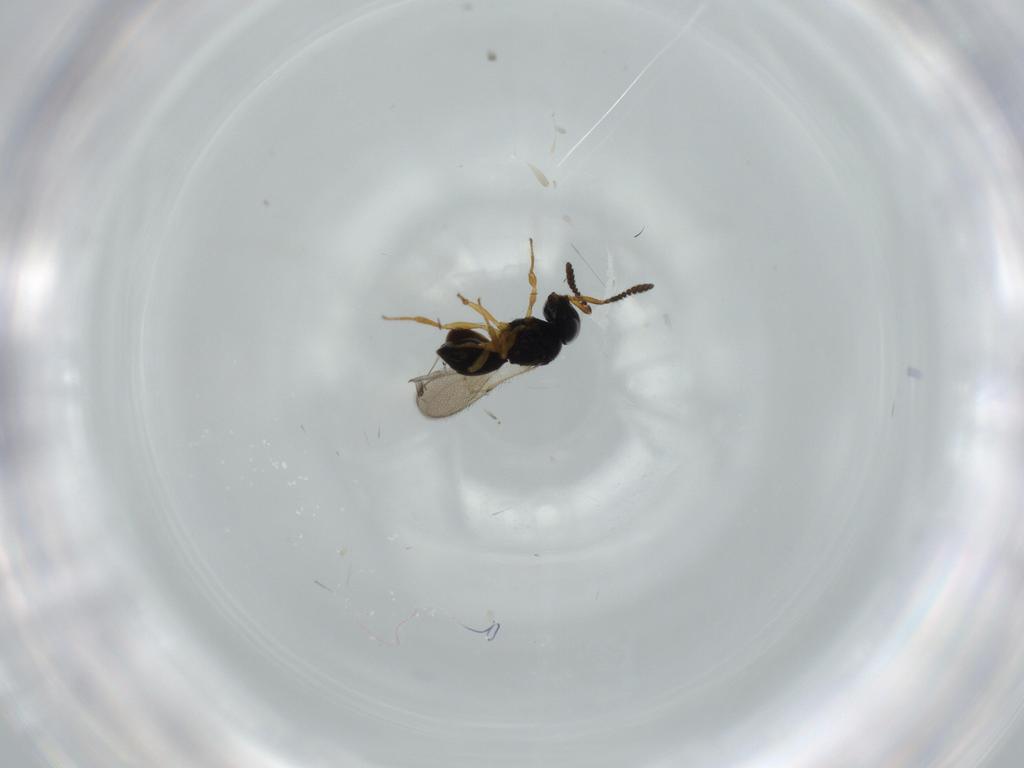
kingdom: Animalia
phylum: Arthropoda
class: Insecta
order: Hymenoptera
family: Scelionidae
